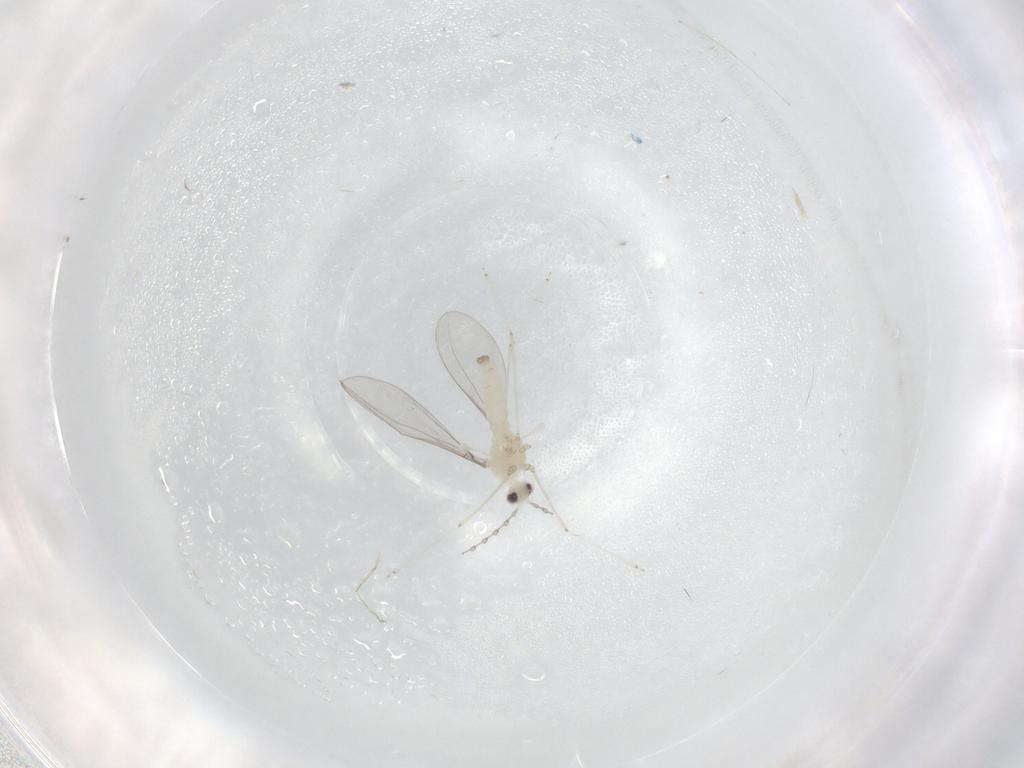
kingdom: Animalia
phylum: Arthropoda
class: Insecta
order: Diptera
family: Cecidomyiidae
